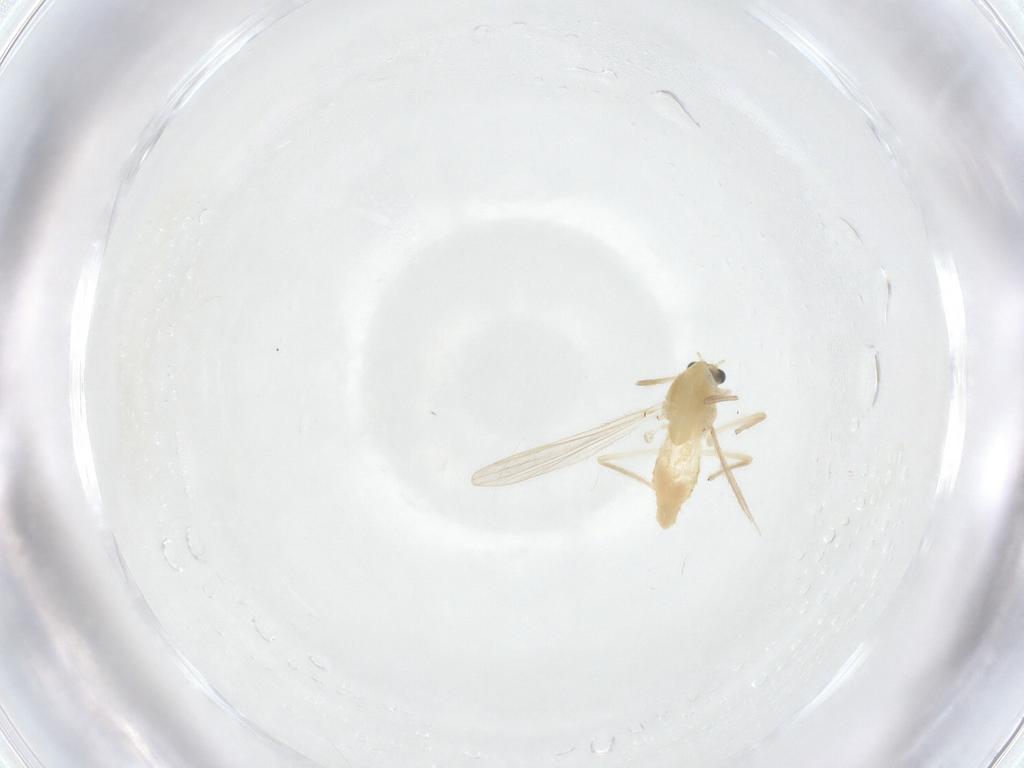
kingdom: Animalia
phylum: Arthropoda
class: Insecta
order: Diptera
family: Chironomidae
